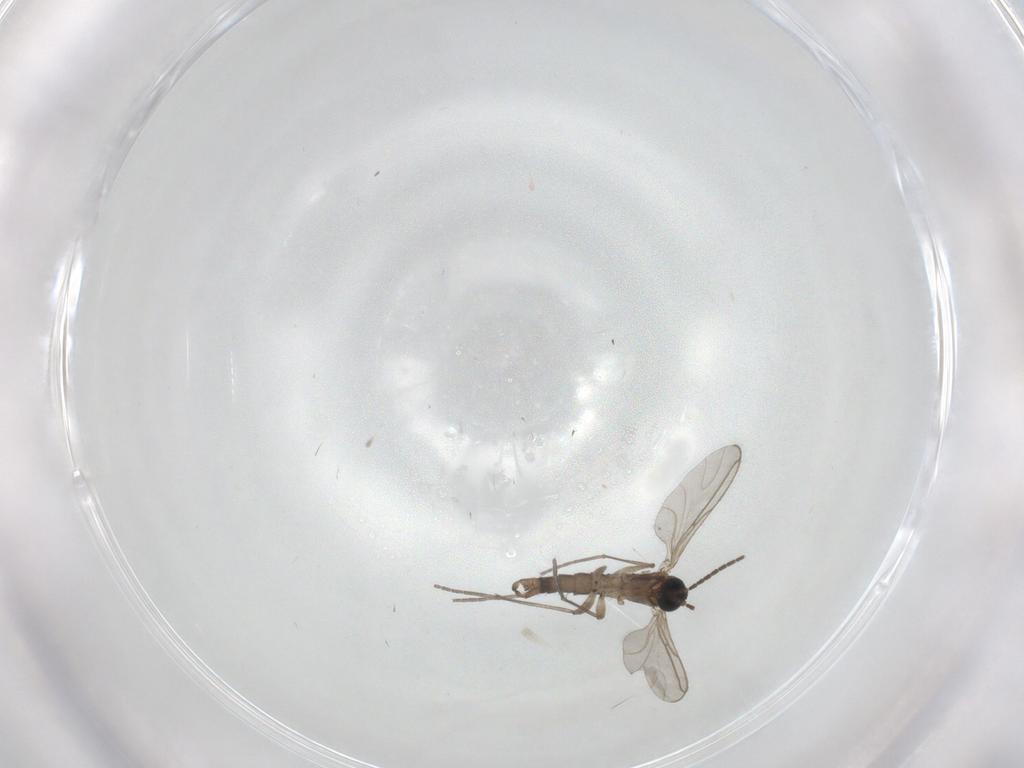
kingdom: Animalia
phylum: Arthropoda
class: Insecta
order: Diptera
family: Sciaridae
